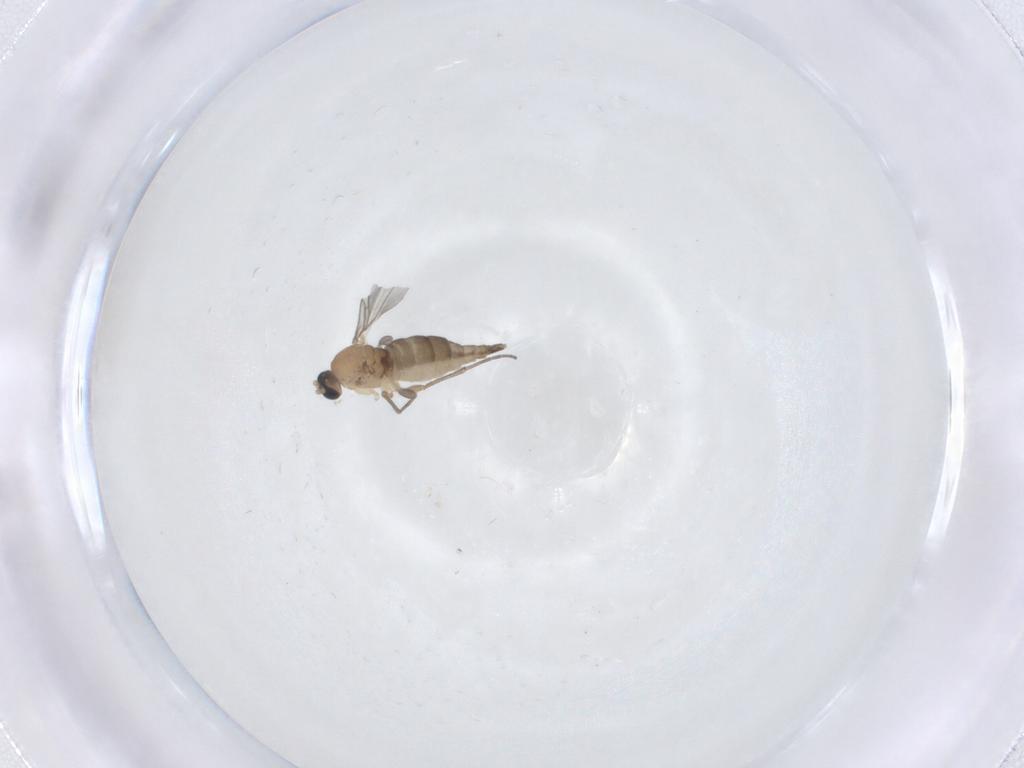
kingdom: Animalia
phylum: Arthropoda
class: Insecta
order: Diptera
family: Sciaridae
